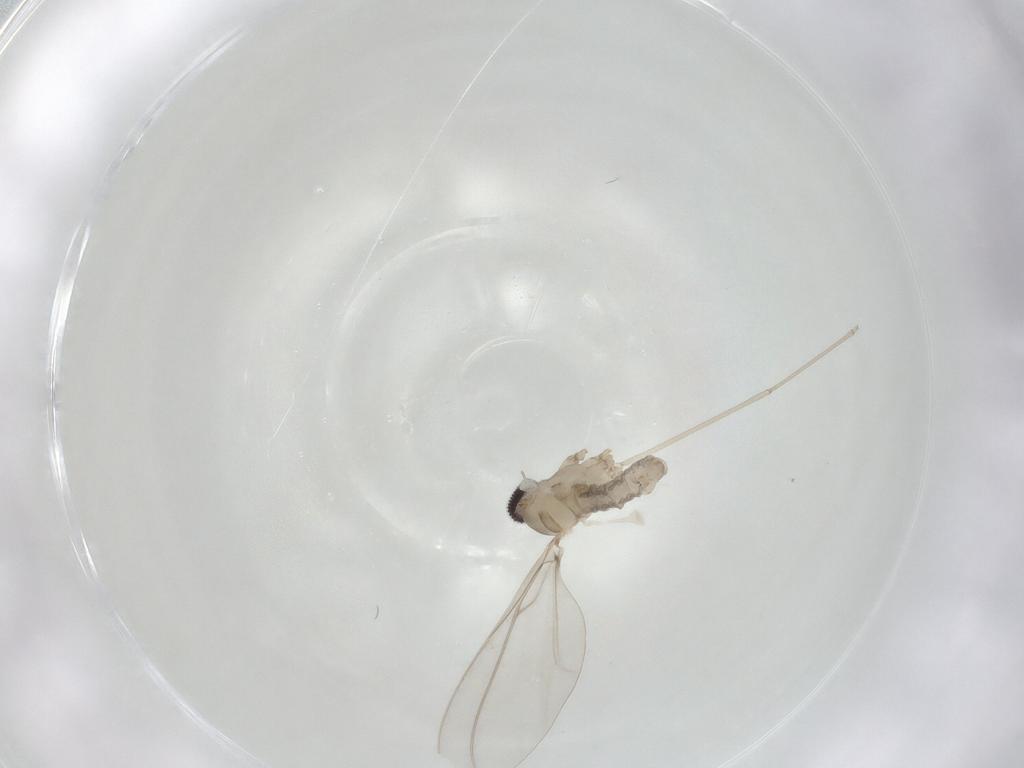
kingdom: Animalia
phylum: Arthropoda
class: Insecta
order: Diptera
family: Cecidomyiidae
